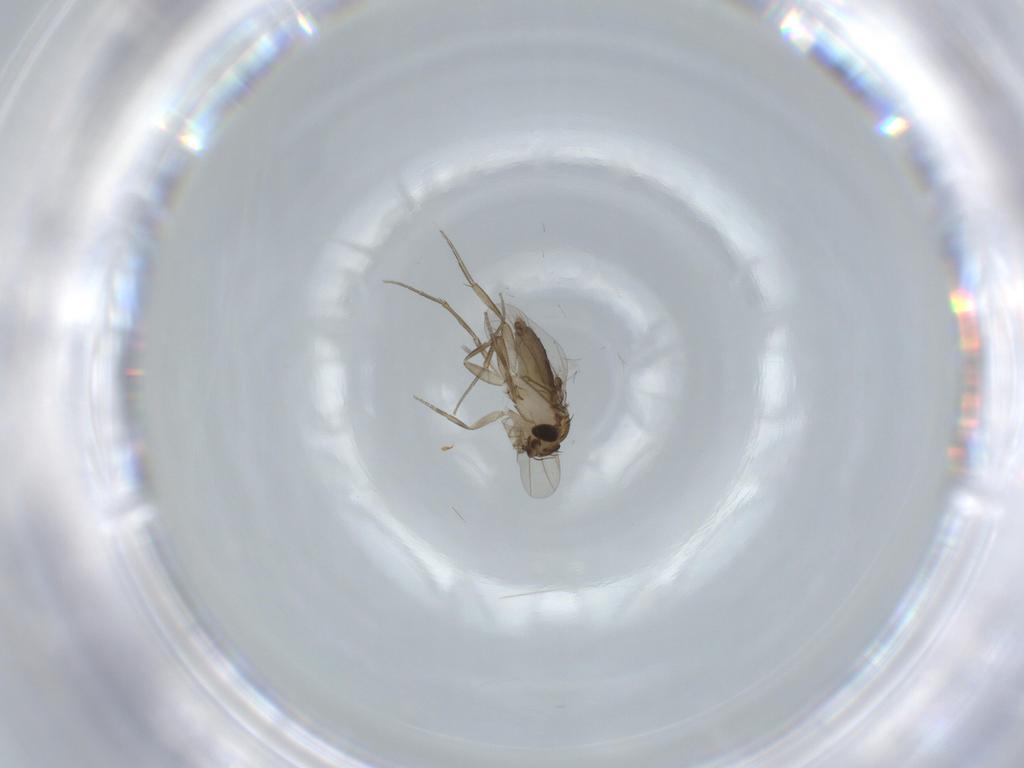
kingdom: Animalia
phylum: Arthropoda
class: Insecta
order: Diptera
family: Phoridae
